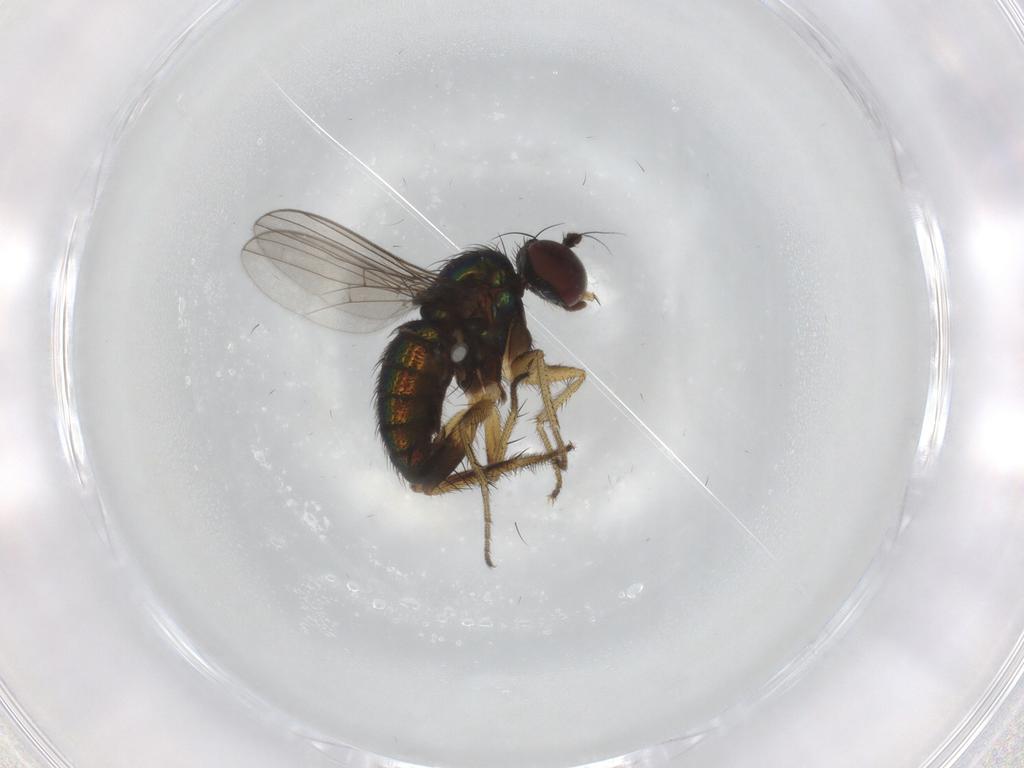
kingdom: Animalia
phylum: Arthropoda
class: Insecta
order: Diptera
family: Dolichopodidae
